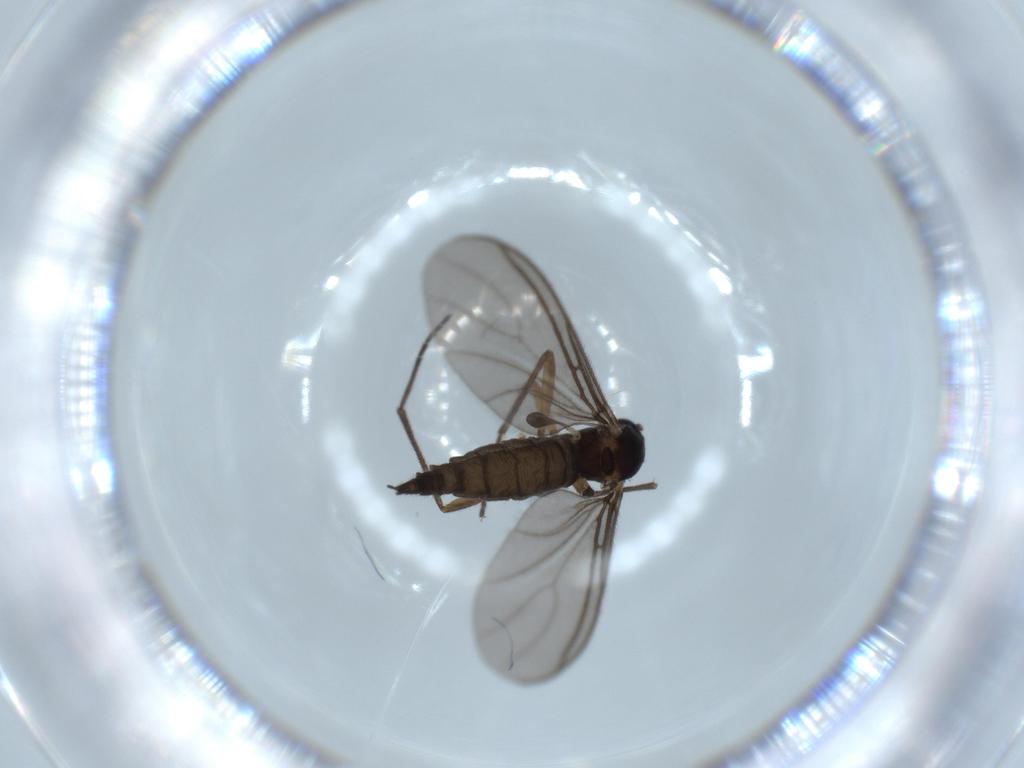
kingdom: Animalia
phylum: Arthropoda
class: Insecta
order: Diptera
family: Sciaridae
